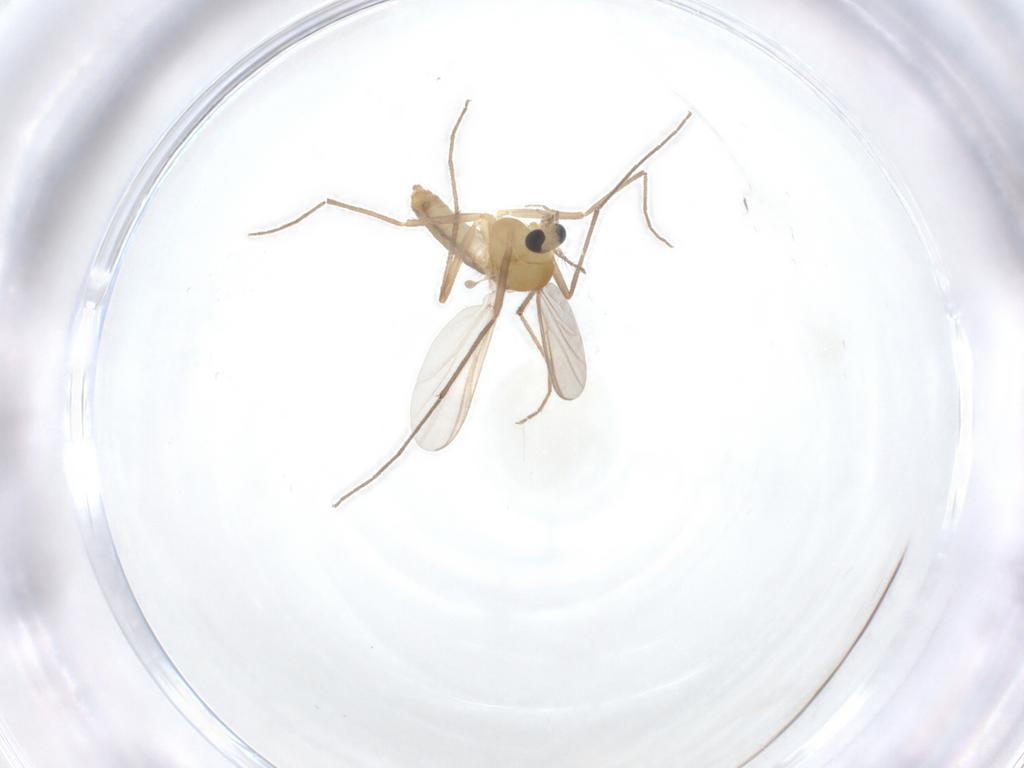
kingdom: Animalia
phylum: Arthropoda
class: Insecta
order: Diptera
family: Chironomidae
